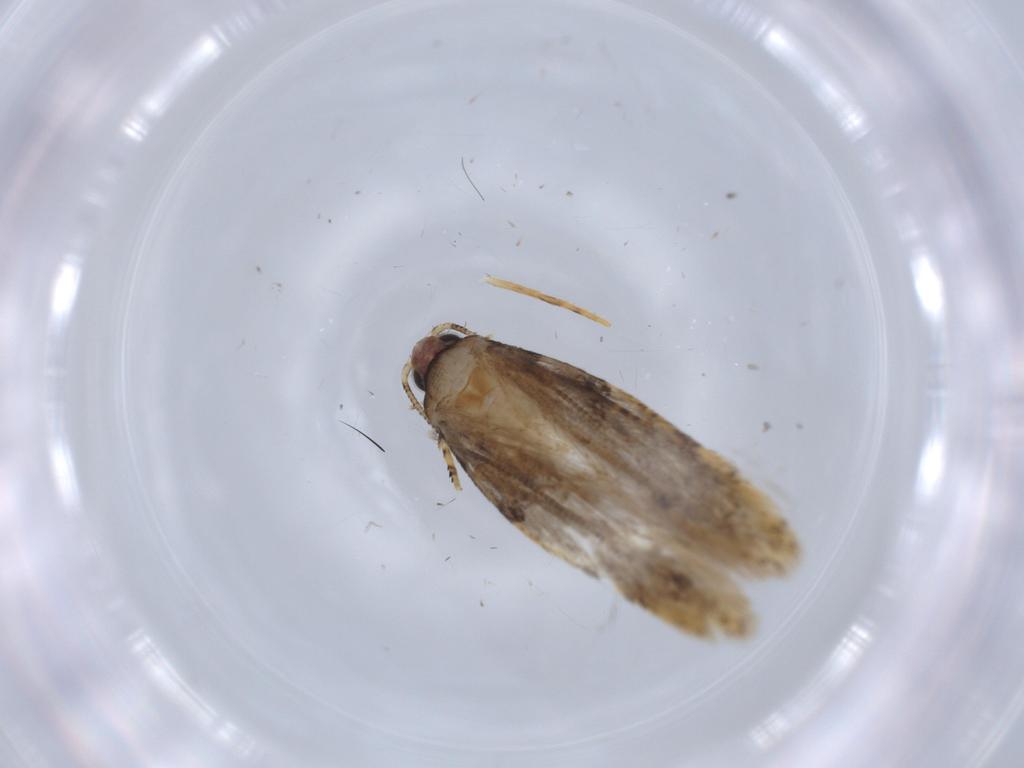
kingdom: Animalia
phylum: Arthropoda
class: Insecta
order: Lepidoptera
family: Tineidae
